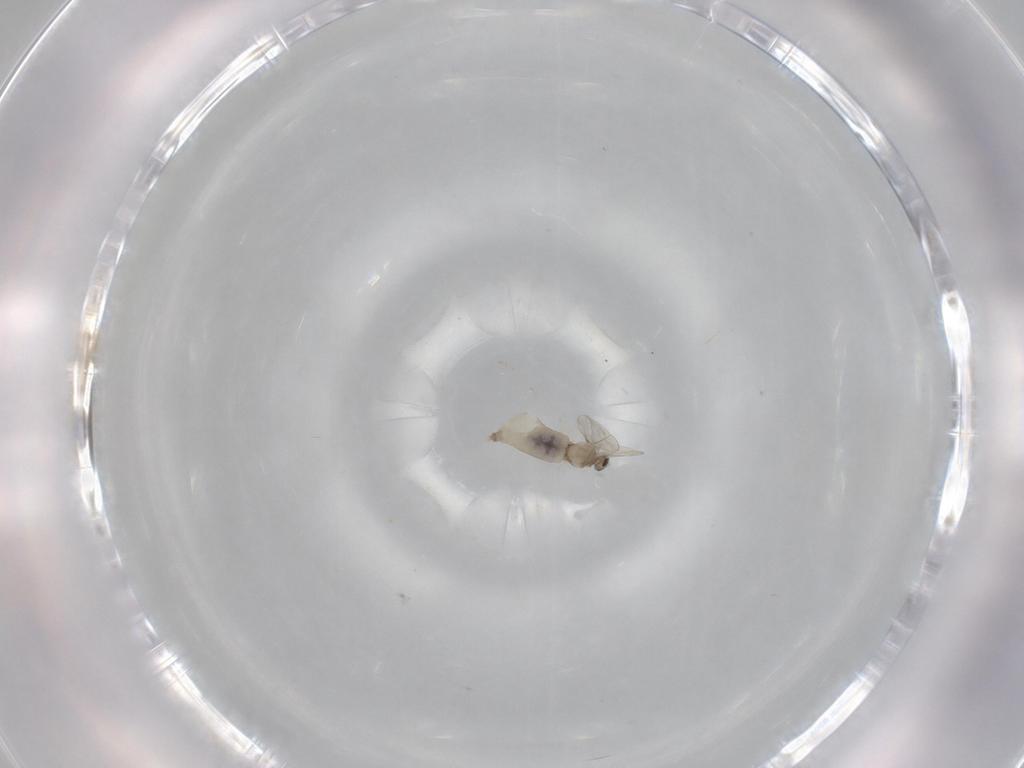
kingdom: Animalia
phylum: Arthropoda
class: Insecta
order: Diptera
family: Cecidomyiidae
